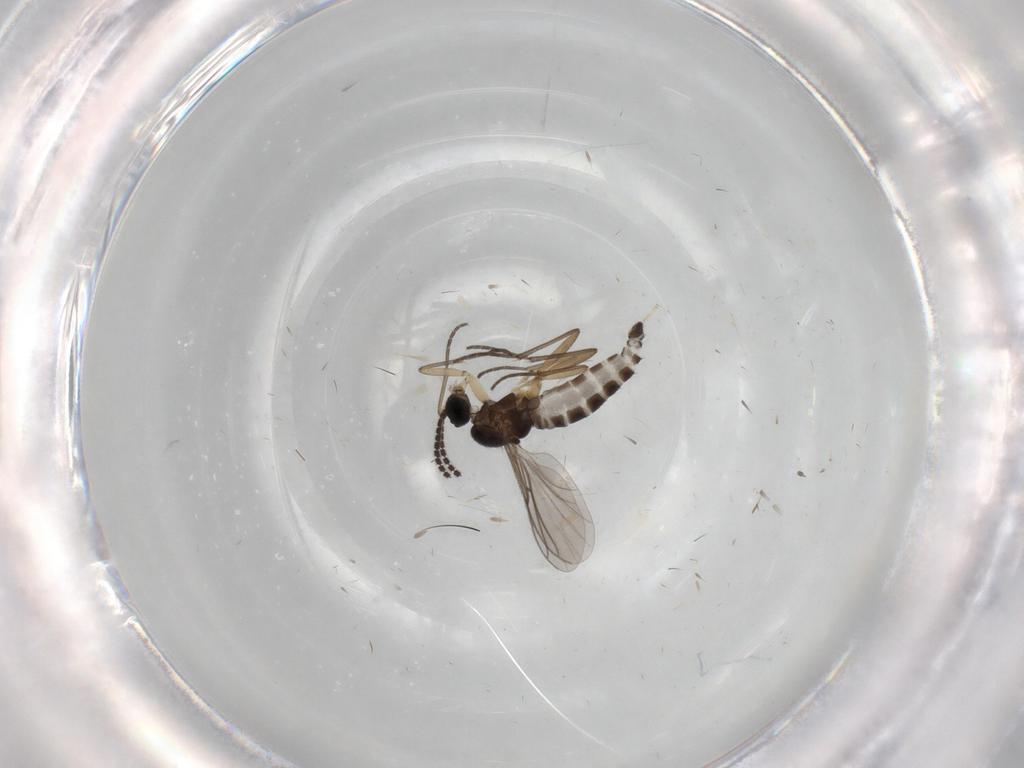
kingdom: Animalia
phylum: Arthropoda
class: Insecta
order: Diptera
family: Sciaridae
